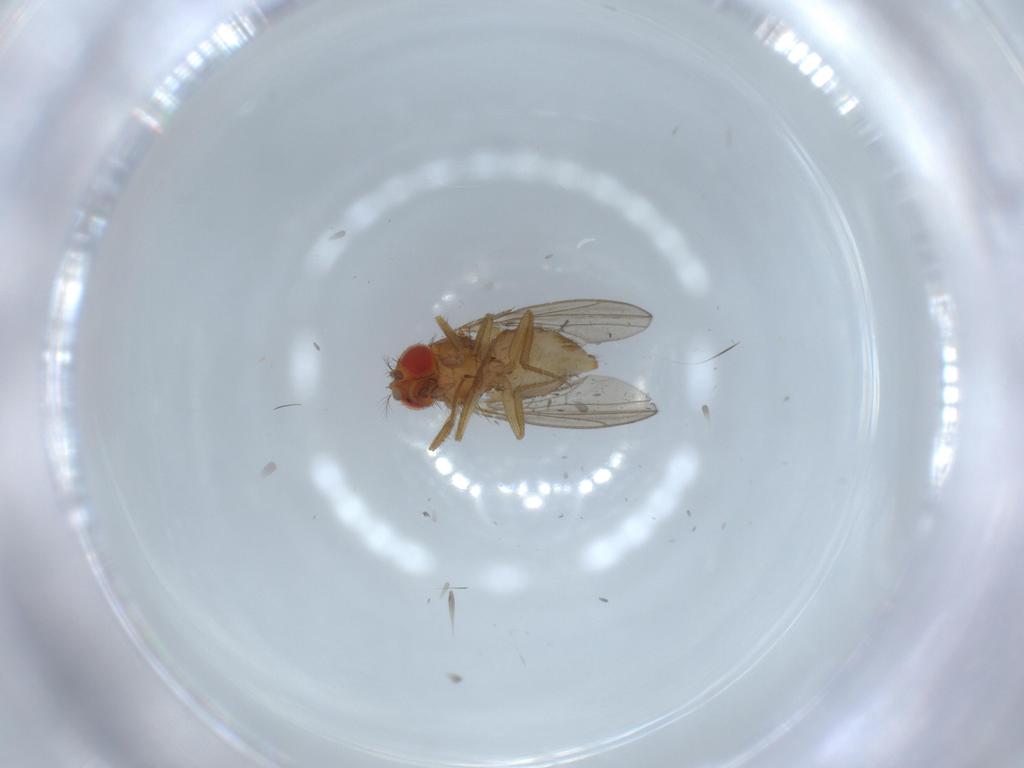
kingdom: Animalia
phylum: Arthropoda
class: Insecta
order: Diptera
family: Drosophilidae
